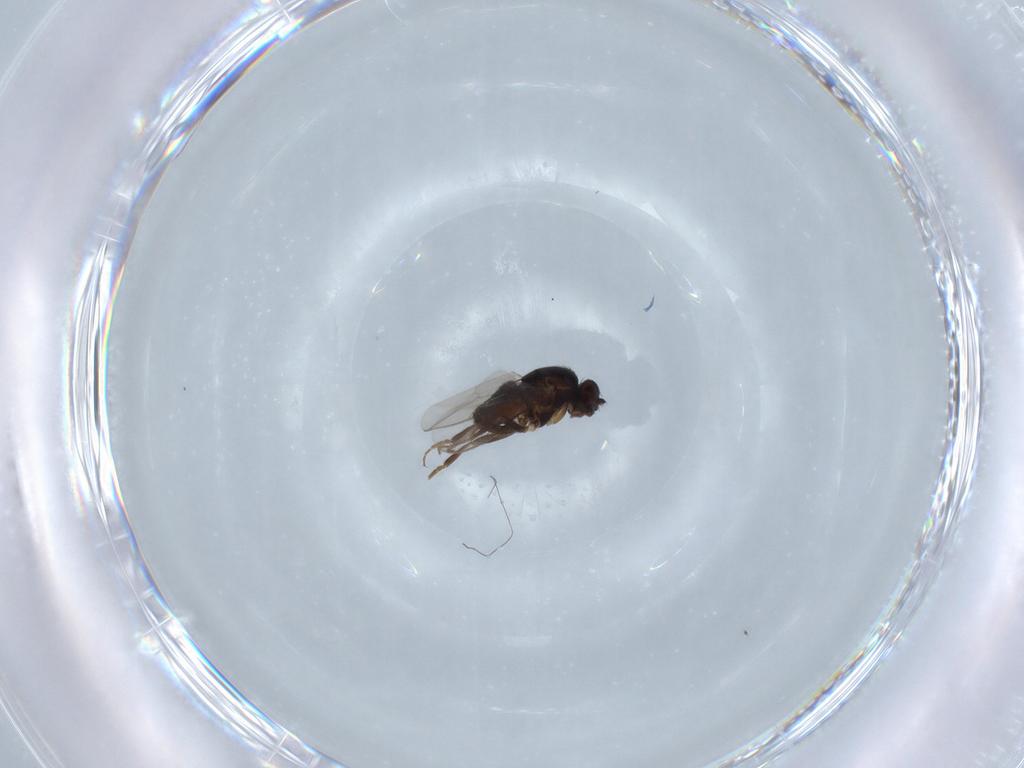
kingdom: Animalia
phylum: Arthropoda
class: Insecta
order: Diptera
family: Sphaeroceridae
